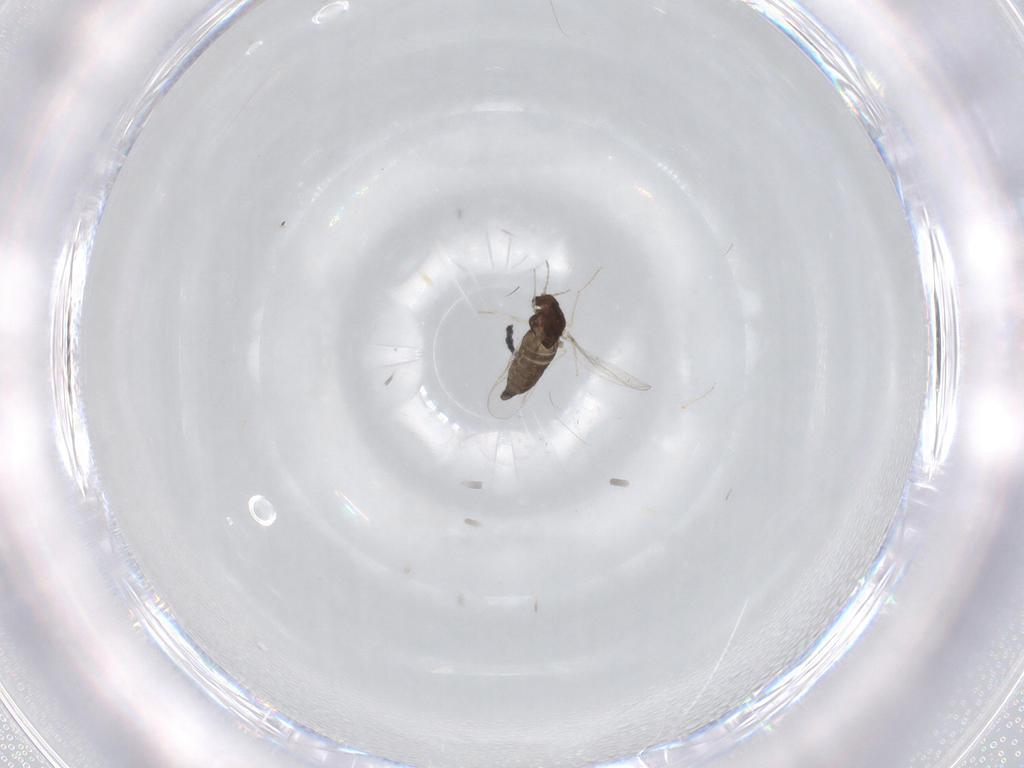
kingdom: Animalia
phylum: Arthropoda
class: Insecta
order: Diptera
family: Chironomidae
